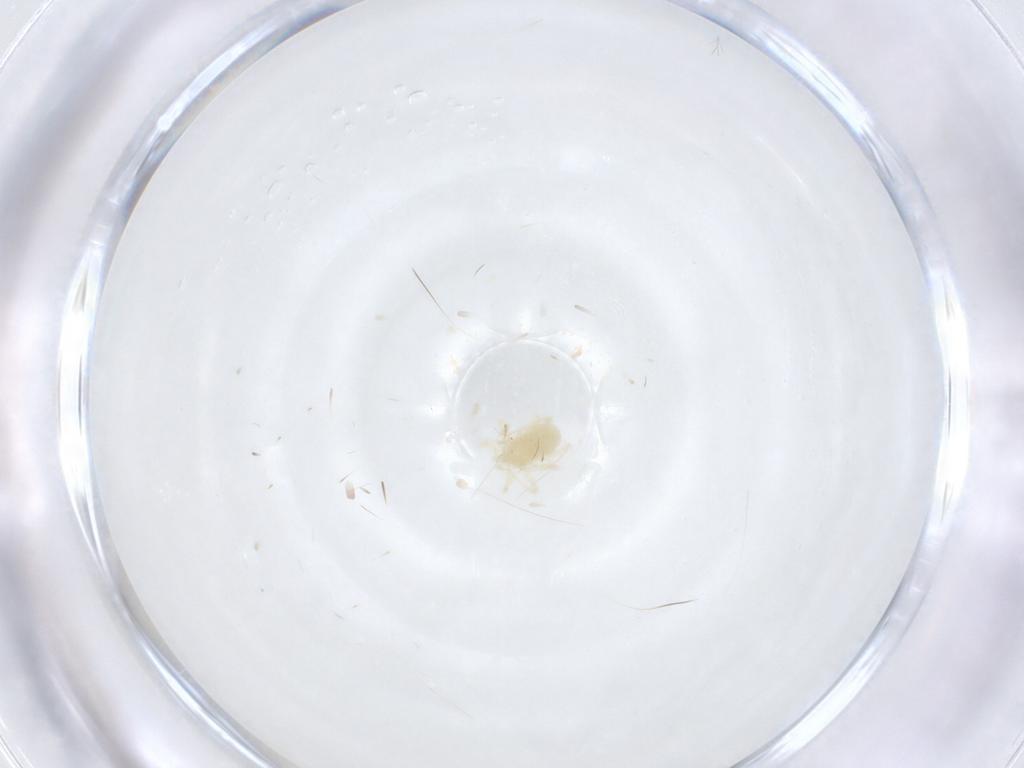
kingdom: Animalia
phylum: Arthropoda
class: Arachnida
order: Trombidiformes
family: Anystidae
